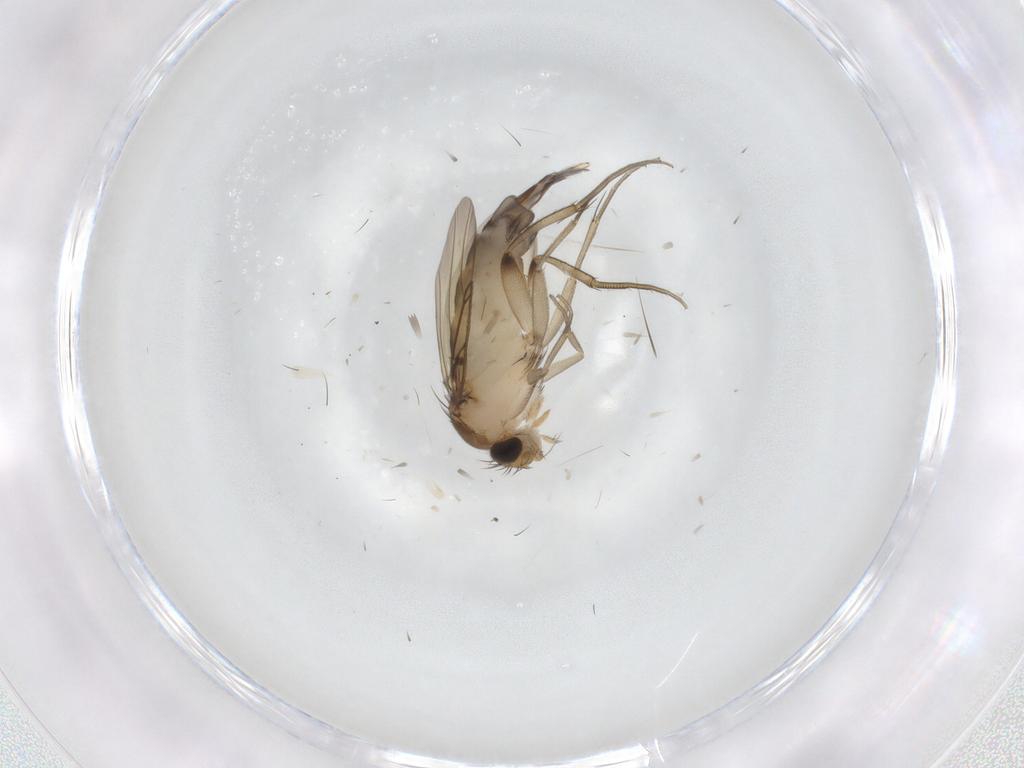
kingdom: Animalia
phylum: Arthropoda
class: Insecta
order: Diptera
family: Phoridae
